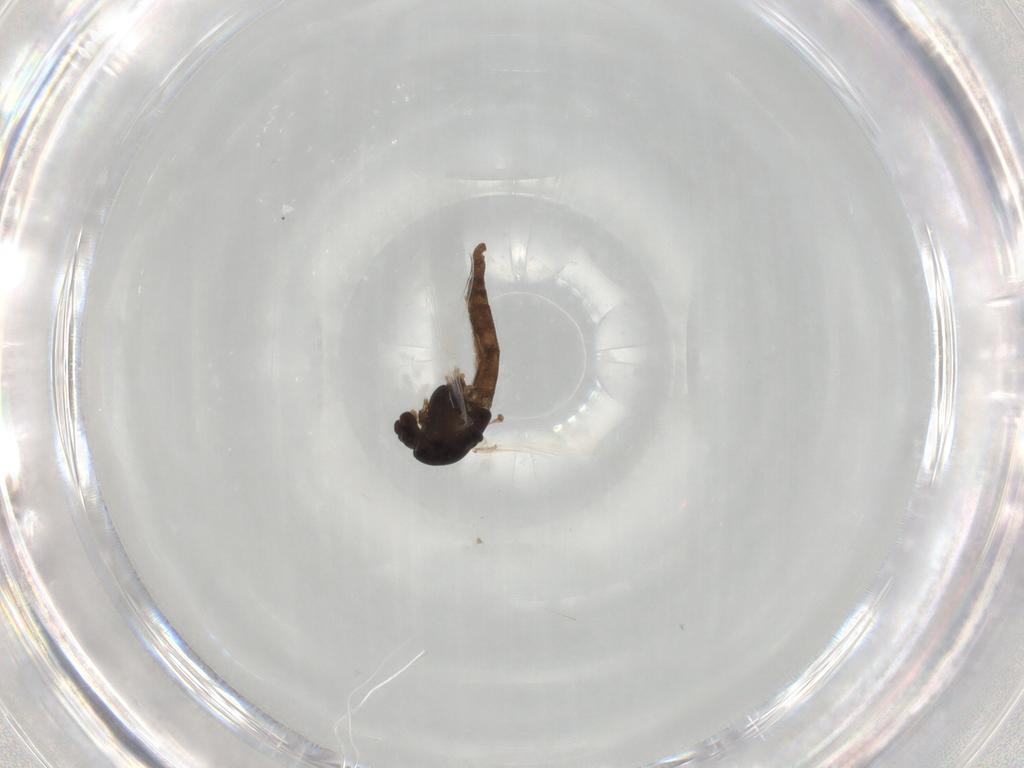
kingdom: Animalia
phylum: Arthropoda
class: Insecta
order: Diptera
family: Chironomidae
